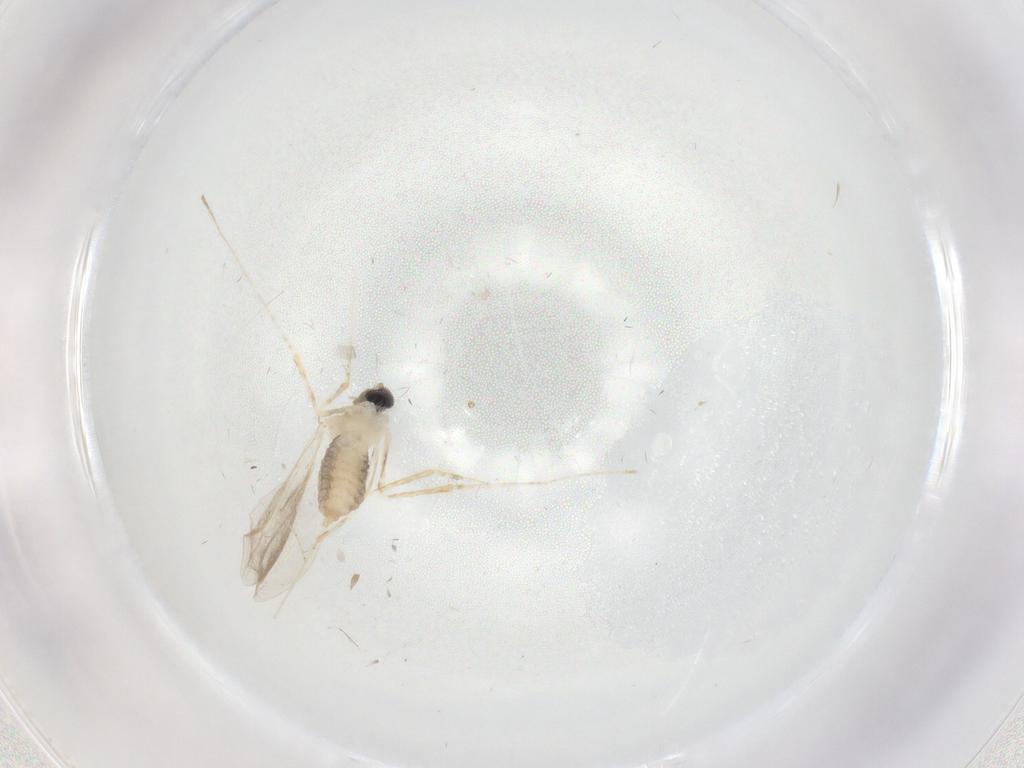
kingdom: Animalia
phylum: Arthropoda
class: Insecta
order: Diptera
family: Cecidomyiidae
